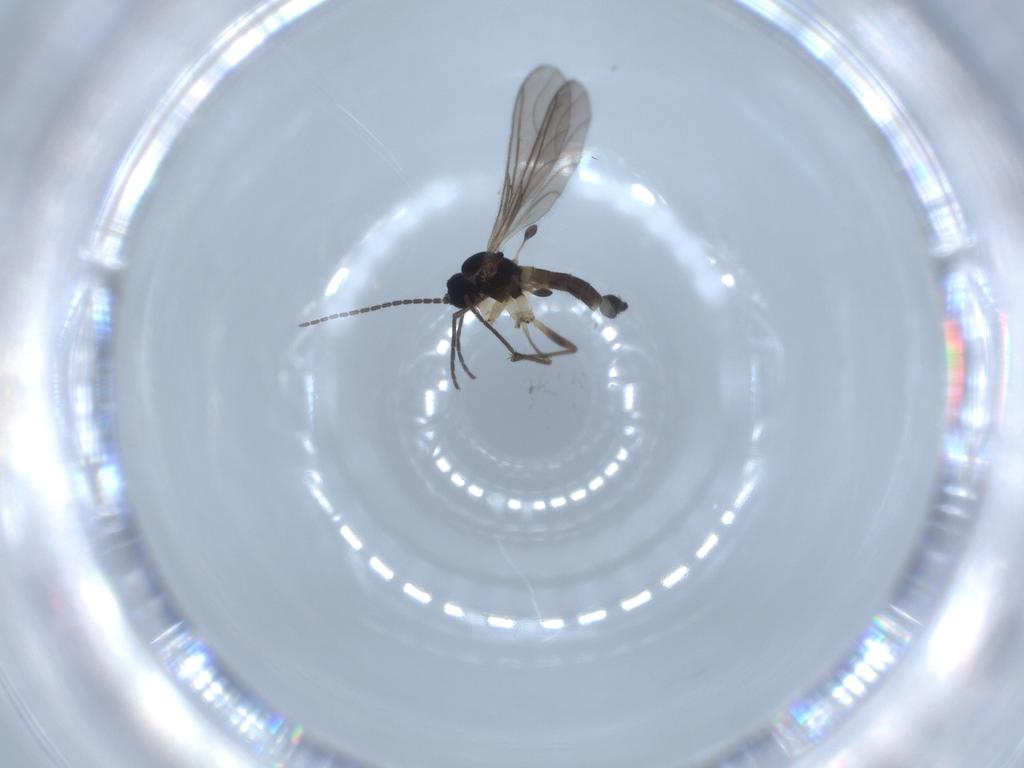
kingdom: Animalia
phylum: Arthropoda
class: Insecta
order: Diptera
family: Sciaridae
